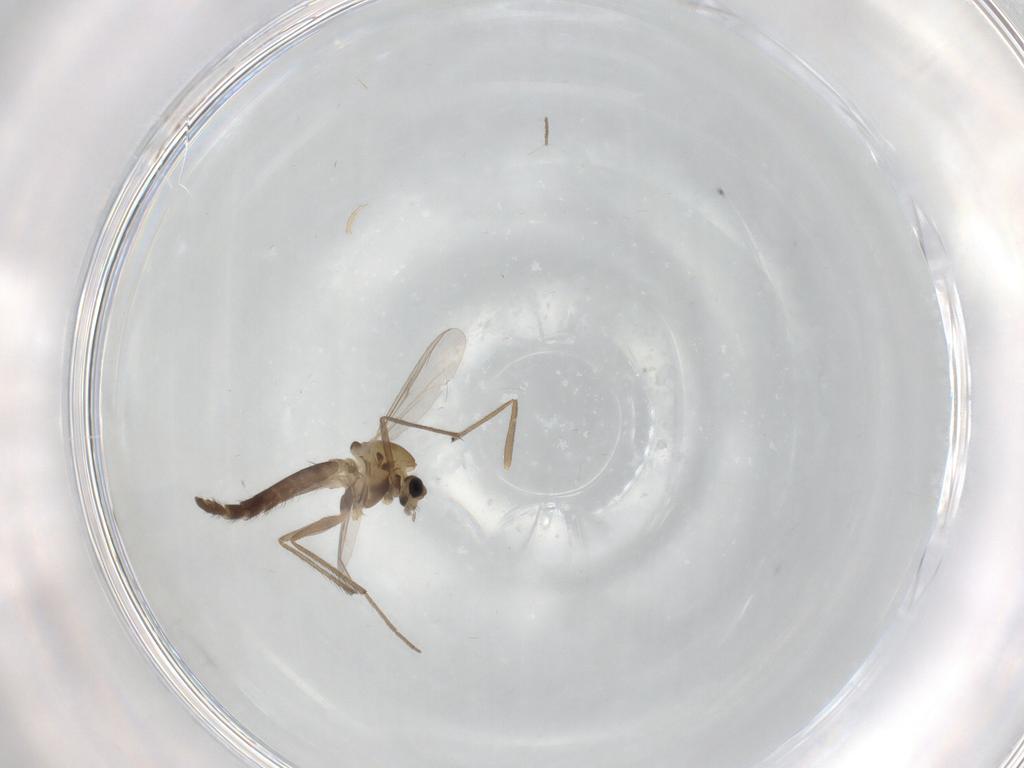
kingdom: Animalia
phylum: Arthropoda
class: Insecta
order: Diptera
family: Chironomidae
